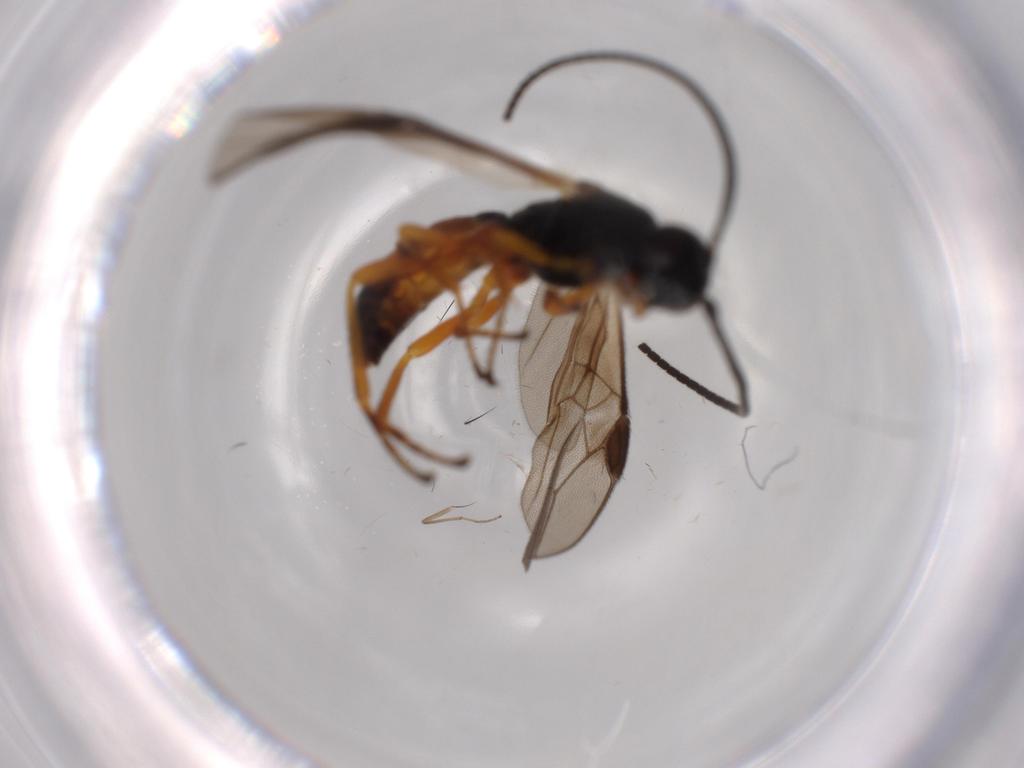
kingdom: Animalia
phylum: Arthropoda
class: Insecta
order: Hymenoptera
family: Braconidae
